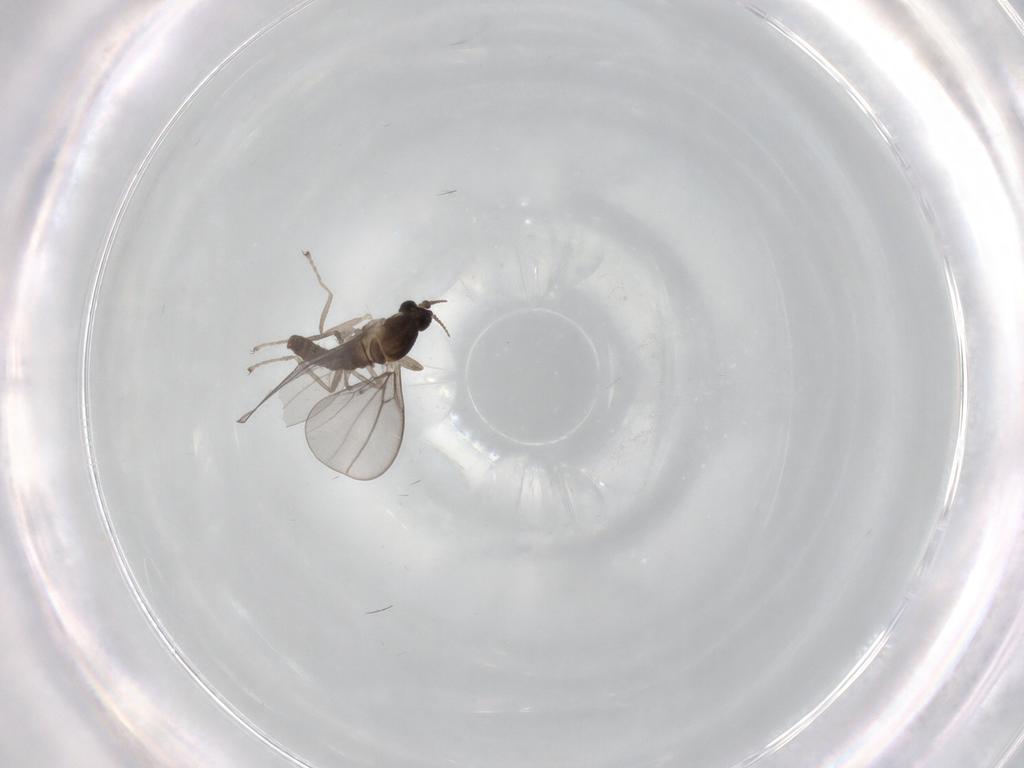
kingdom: Animalia
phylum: Arthropoda
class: Insecta
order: Diptera
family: Cecidomyiidae
